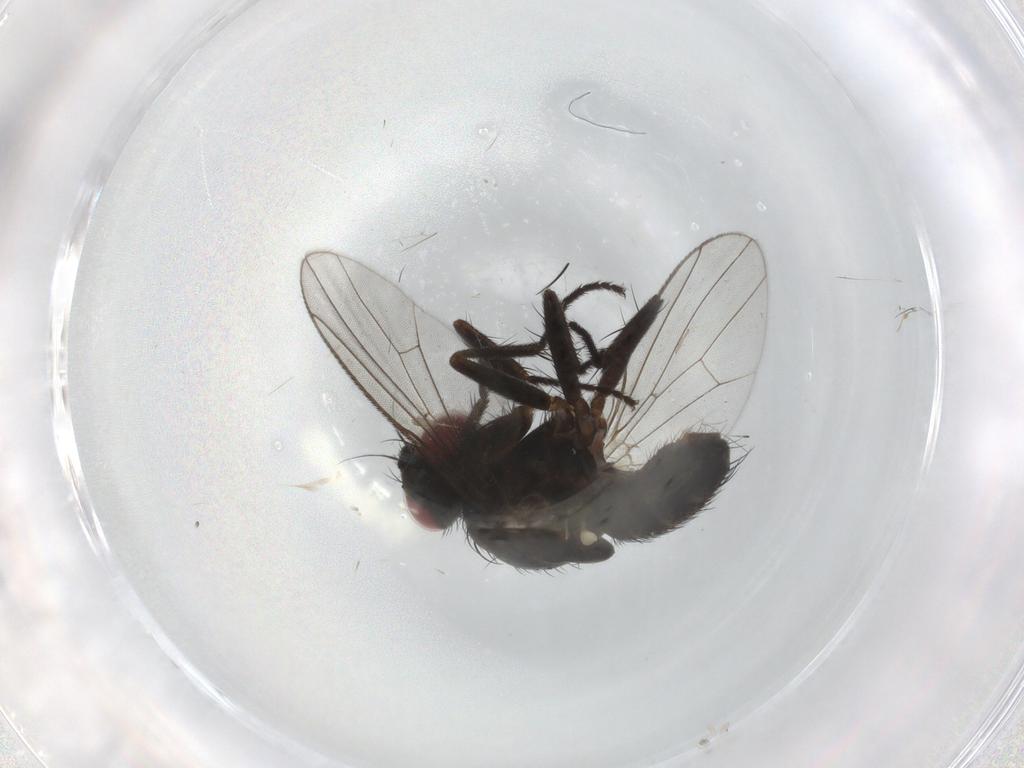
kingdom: Animalia
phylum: Arthropoda
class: Insecta
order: Diptera
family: Muscidae
